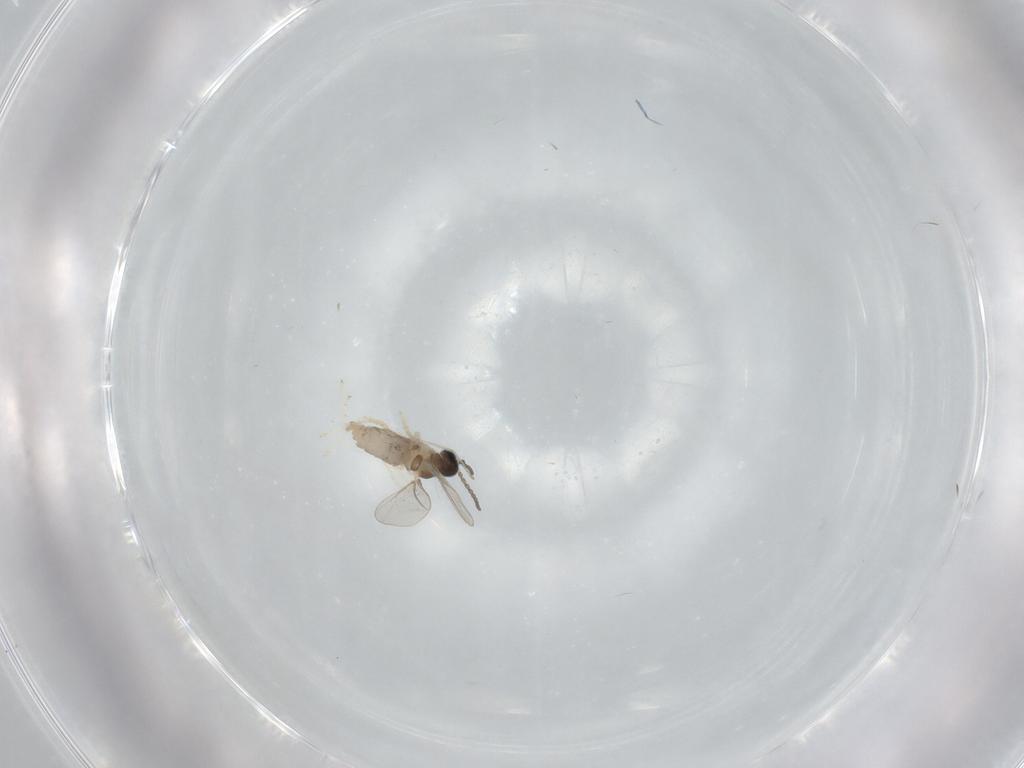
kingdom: Animalia
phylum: Arthropoda
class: Insecta
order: Diptera
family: Cecidomyiidae
